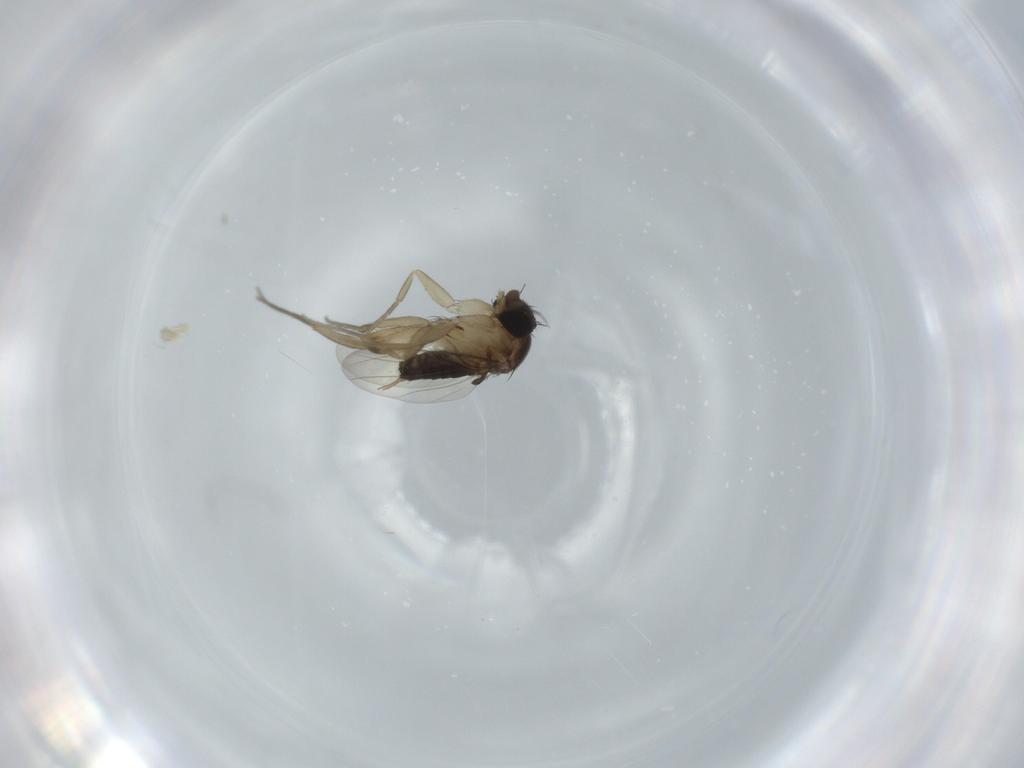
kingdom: Animalia
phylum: Arthropoda
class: Insecta
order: Diptera
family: Phoridae
